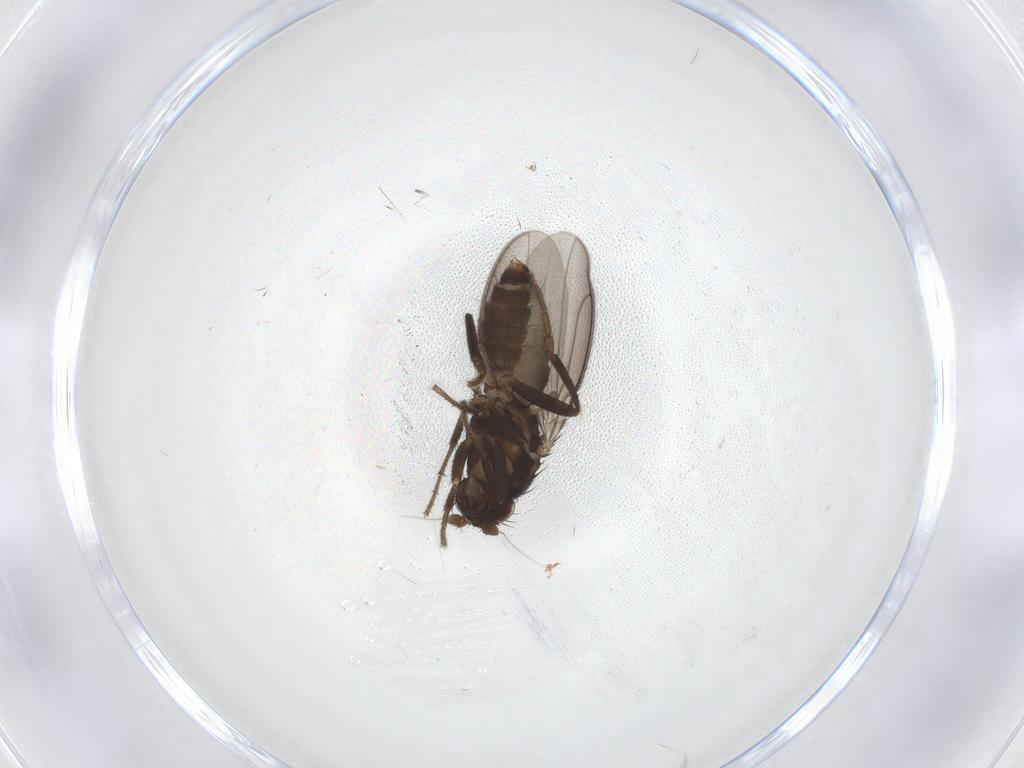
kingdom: Animalia
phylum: Arthropoda
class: Insecta
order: Diptera
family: Sphaeroceridae
